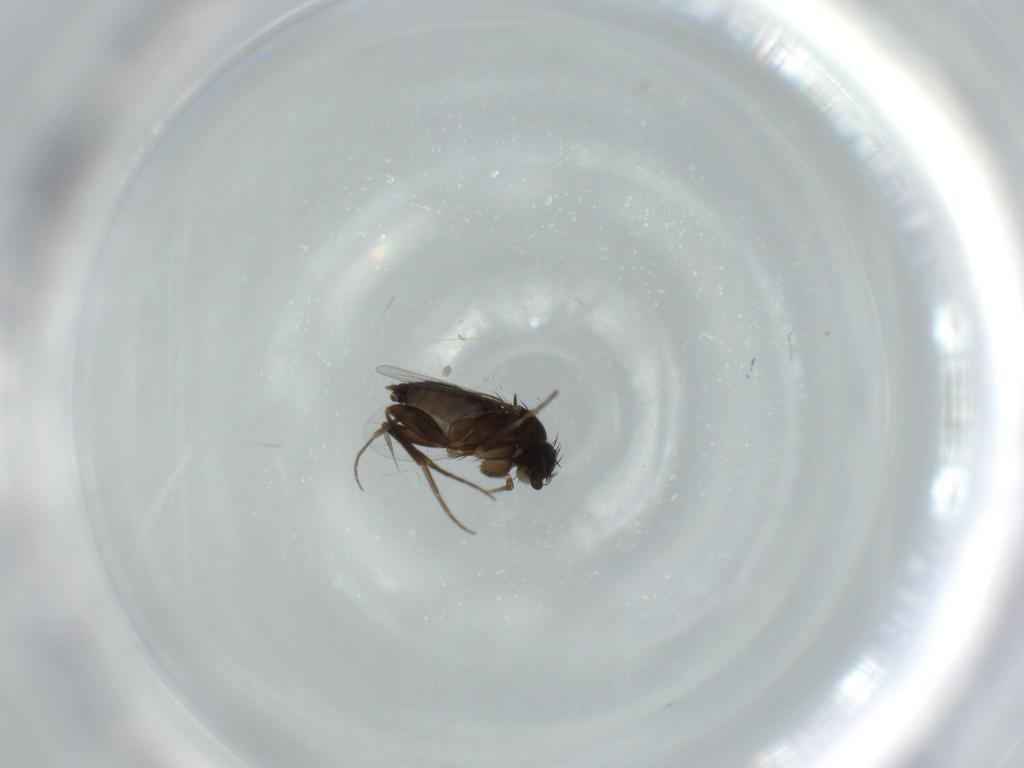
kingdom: Animalia
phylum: Arthropoda
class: Insecta
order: Diptera
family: Phoridae
